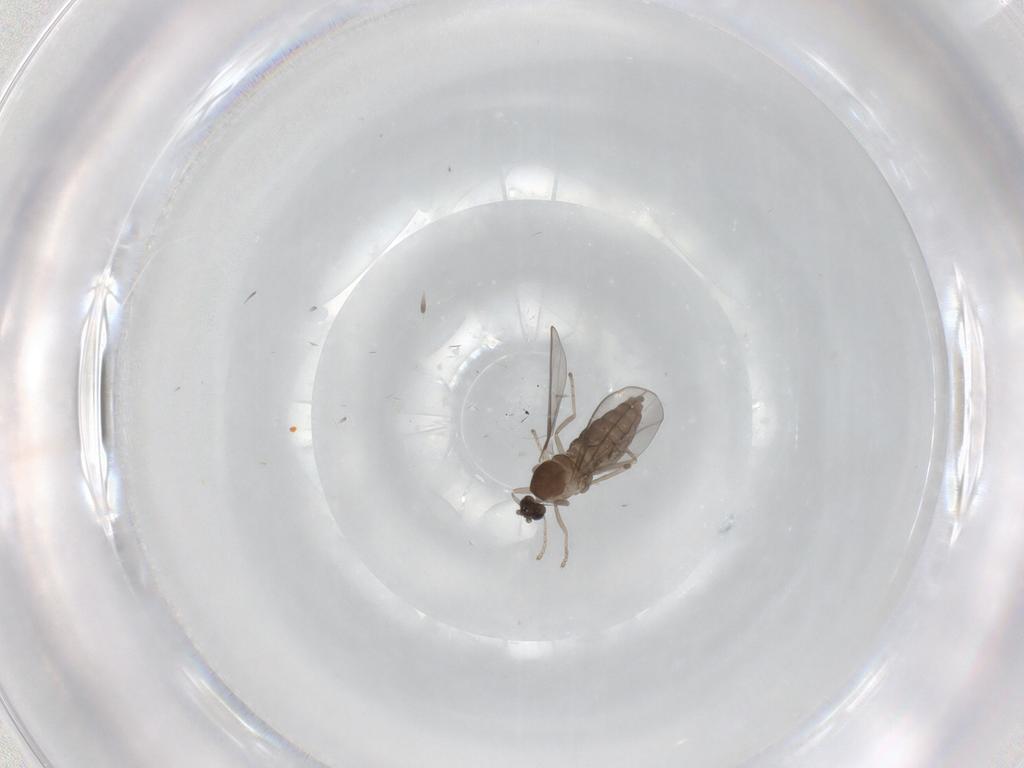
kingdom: Animalia
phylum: Arthropoda
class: Insecta
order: Diptera
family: Cecidomyiidae
